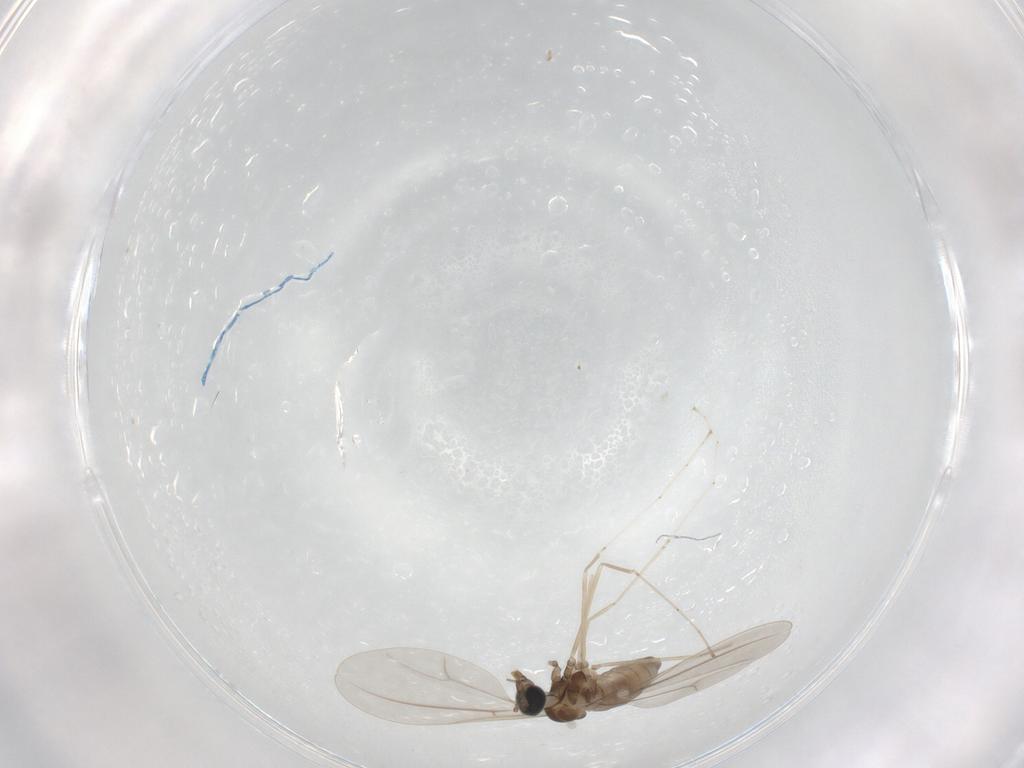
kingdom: Animalia
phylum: Arthropoda
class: Insecta
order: Diptera
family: Cecidomyiidae
